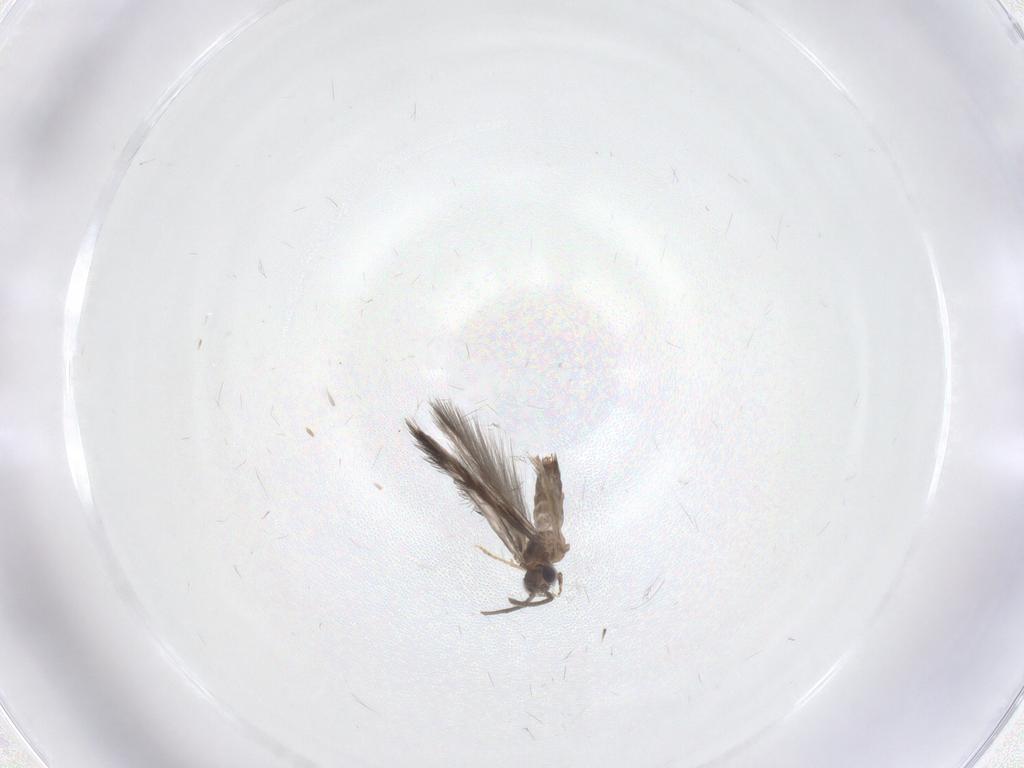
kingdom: Animalia
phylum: Arthropoda
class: Insecta
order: Trichoptera
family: Hydroptilidae
